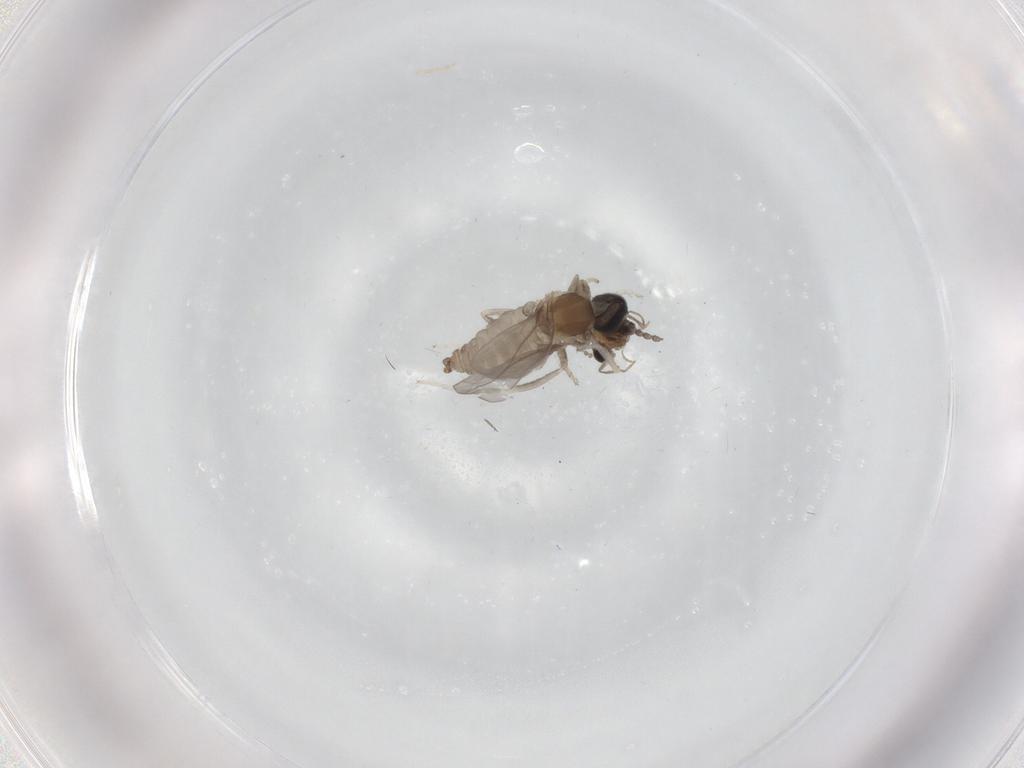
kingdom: Animalia
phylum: Arthropoda
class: Insecta
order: Diptera
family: Cecidomyiidae
